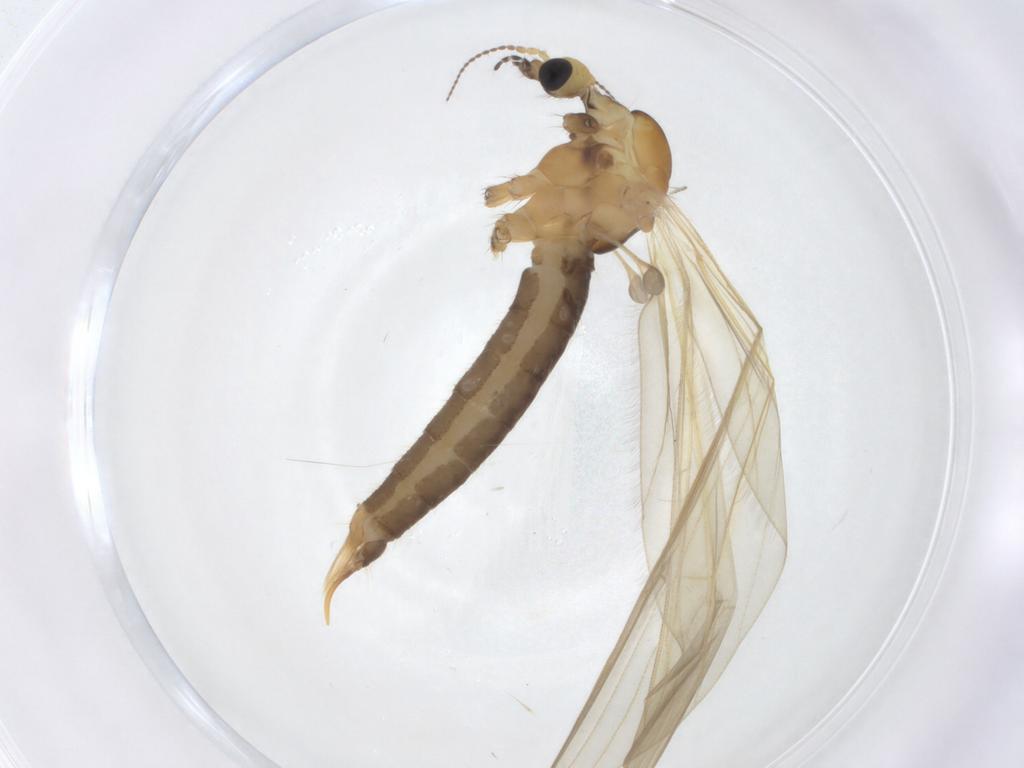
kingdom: Animalia
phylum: Arthropoda
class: Insecta
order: Diptera
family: Limoniidae
